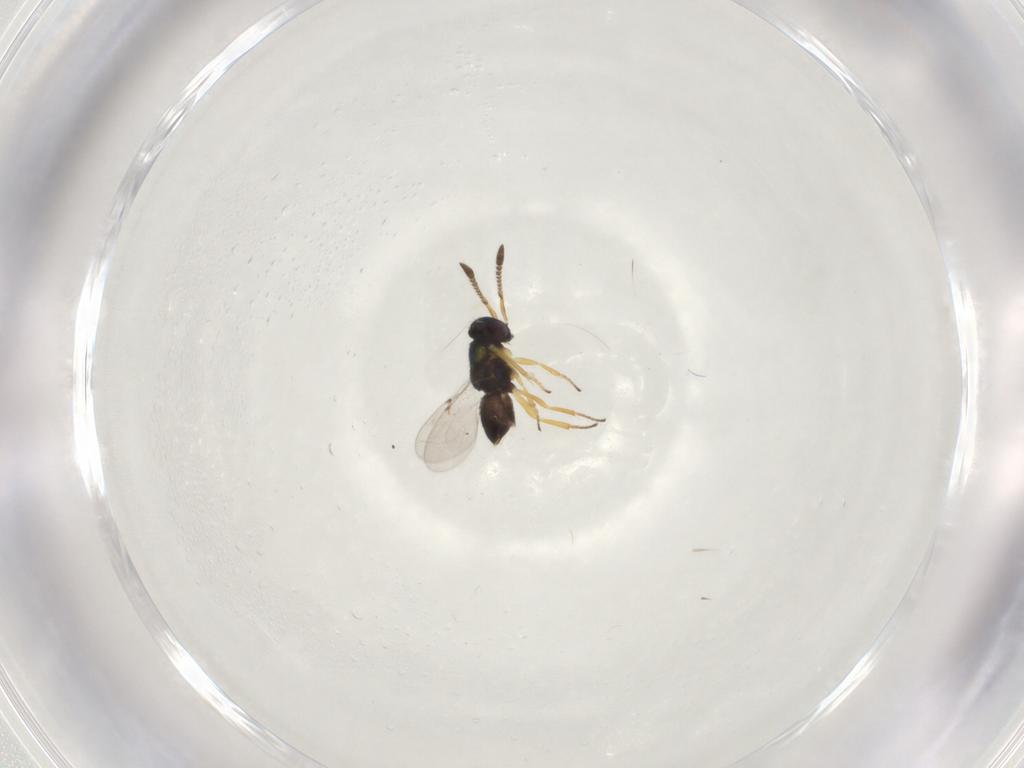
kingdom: Animalia
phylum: Arthropoda
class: Insecta
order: Hymenoptera
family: Encyrtidae
